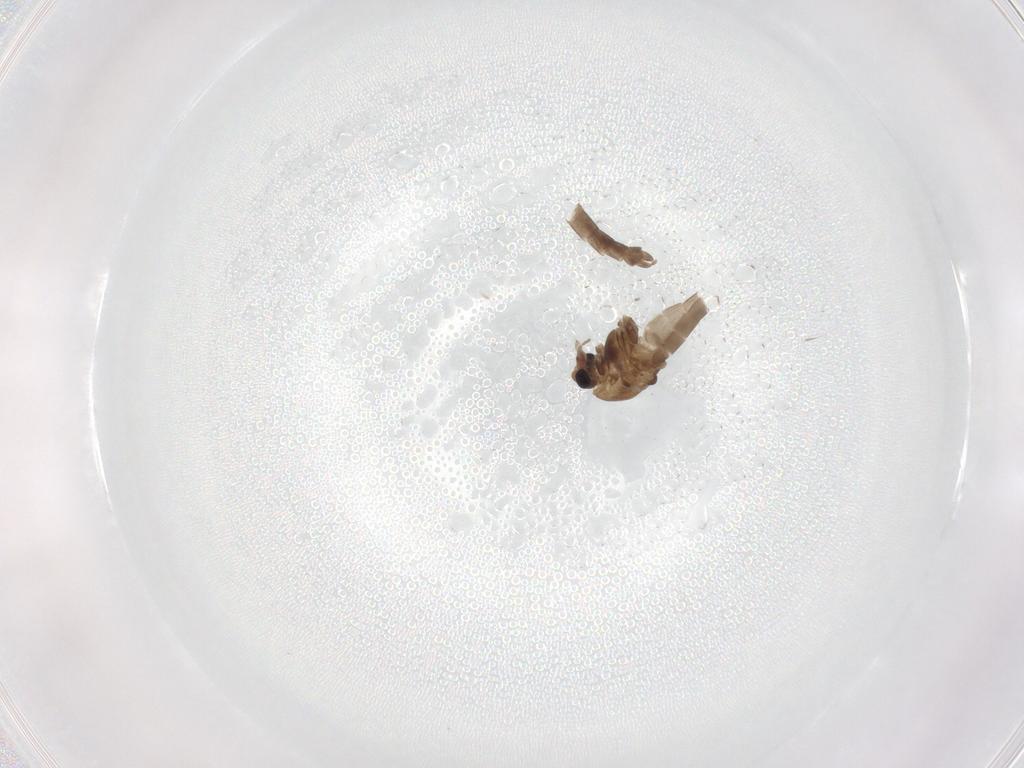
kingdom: Animalia
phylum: Arthropoda
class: Insecta
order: Diptera
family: Chironomidae
